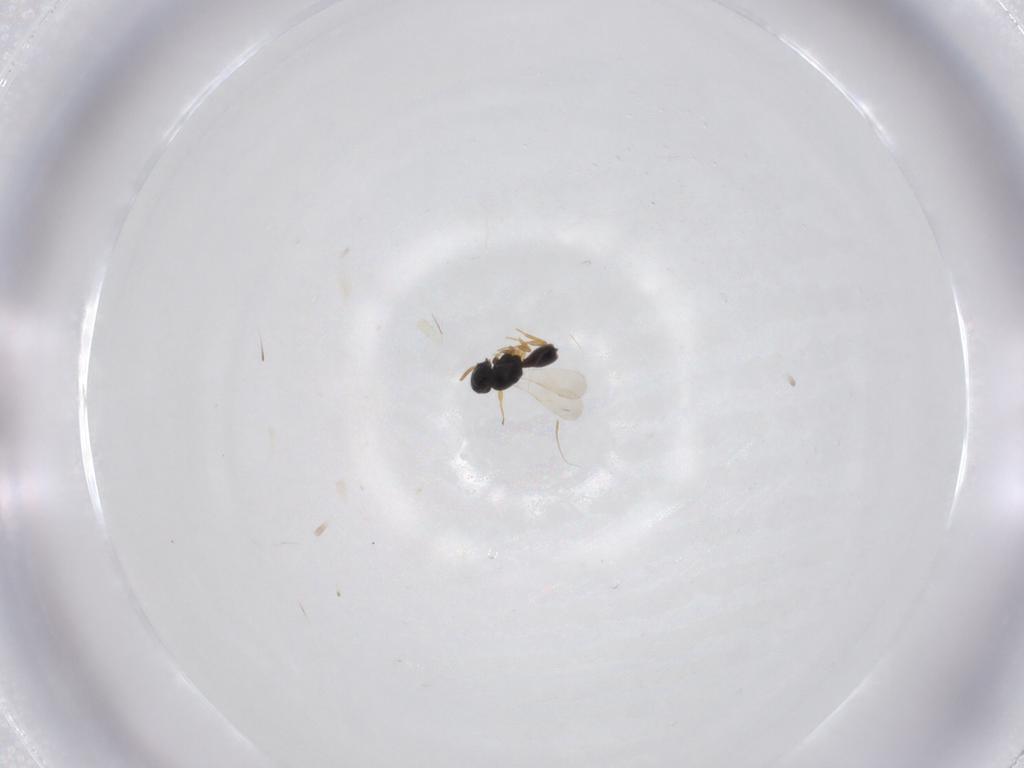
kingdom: Animalia
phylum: Arthropoda
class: Insecta
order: Hymenoptera
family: Scelionidae
